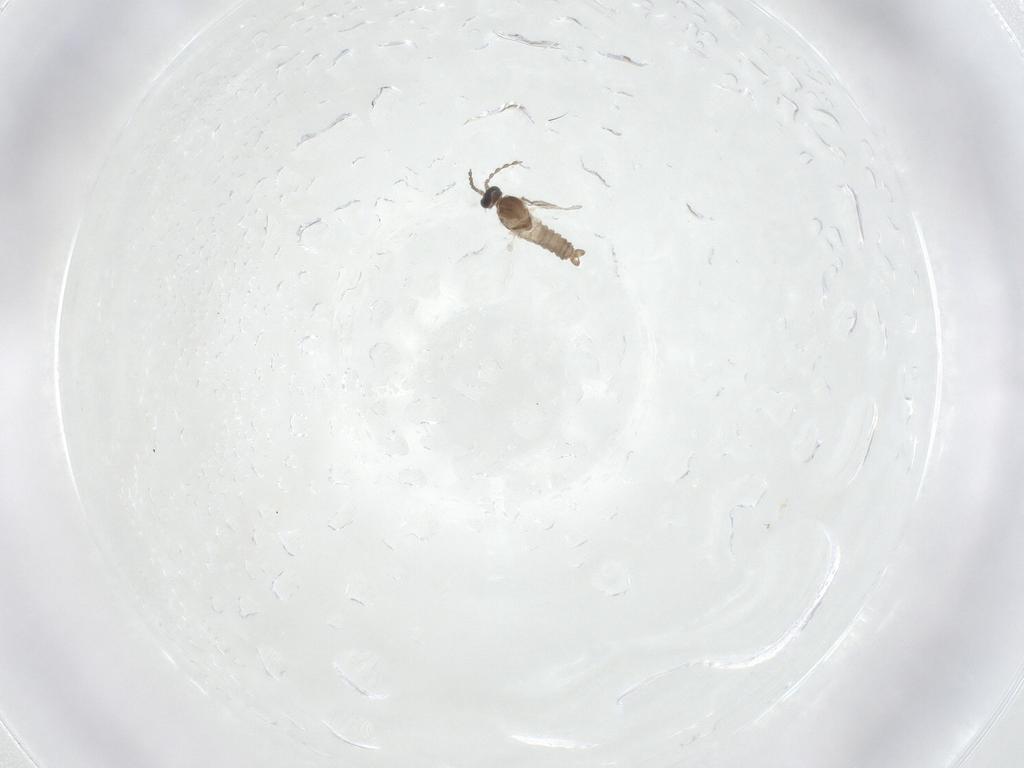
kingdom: Animalia
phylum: Arthropoda
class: Insecta
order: Diptera
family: Cecidomyiidae
